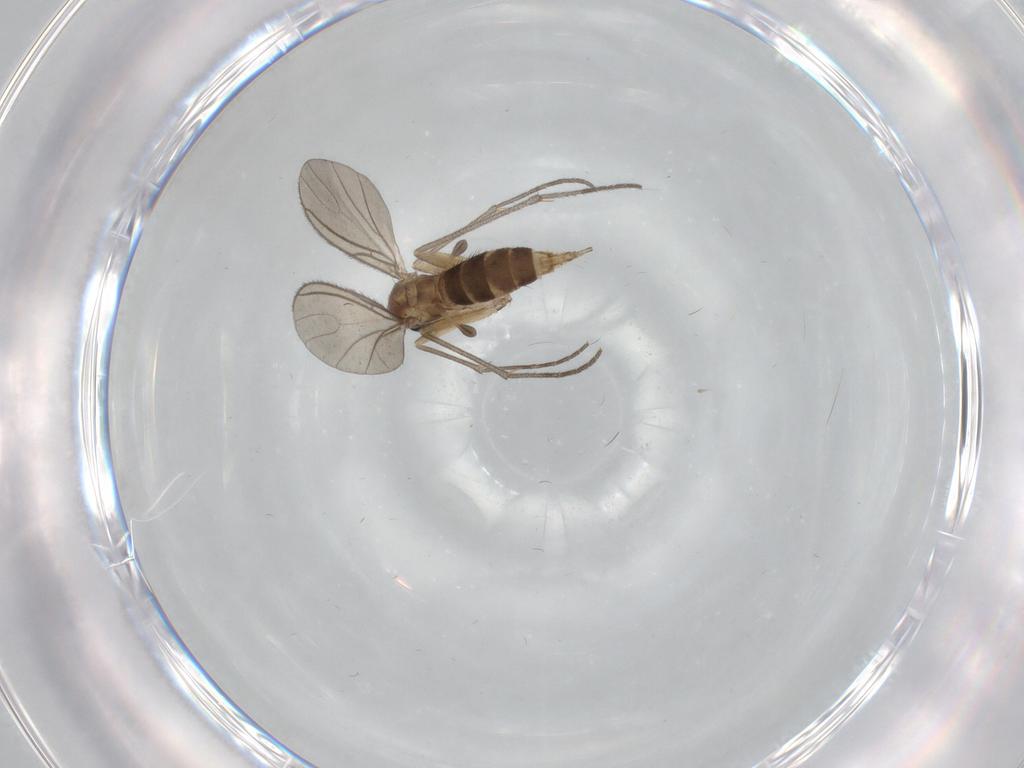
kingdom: Animalia
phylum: Arthropoda
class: Insecta
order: Diptera
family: Sciaridae
